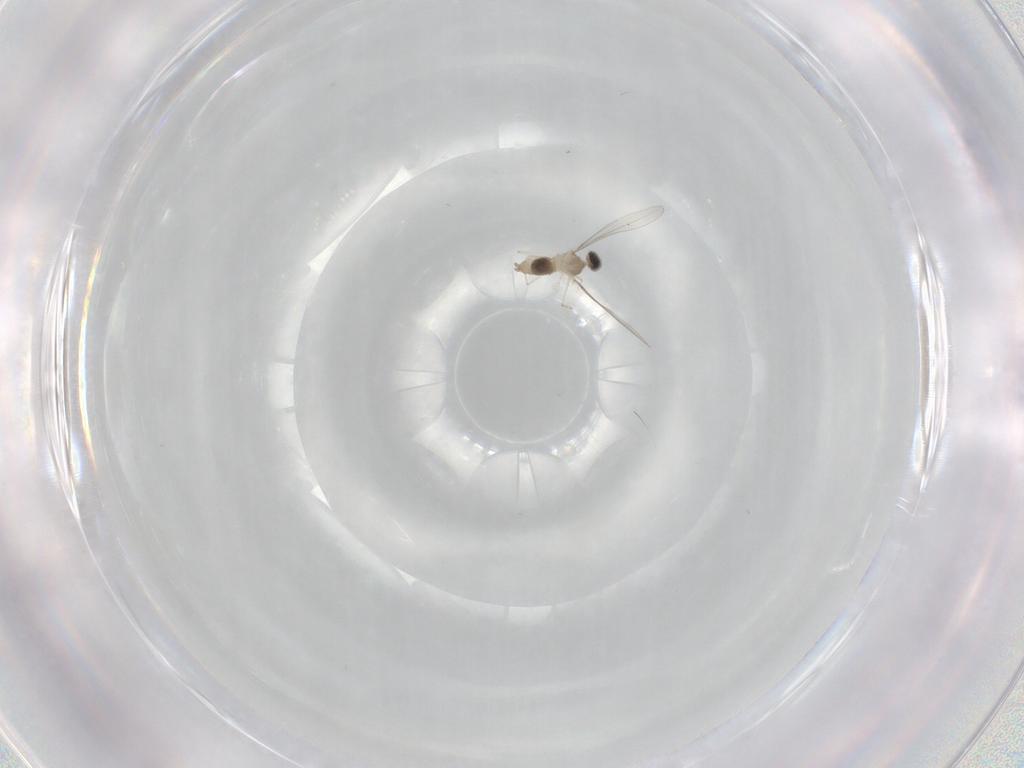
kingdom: Animalia
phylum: Arthropoda
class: Insecta
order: Diptera
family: Cecidomyiidae
